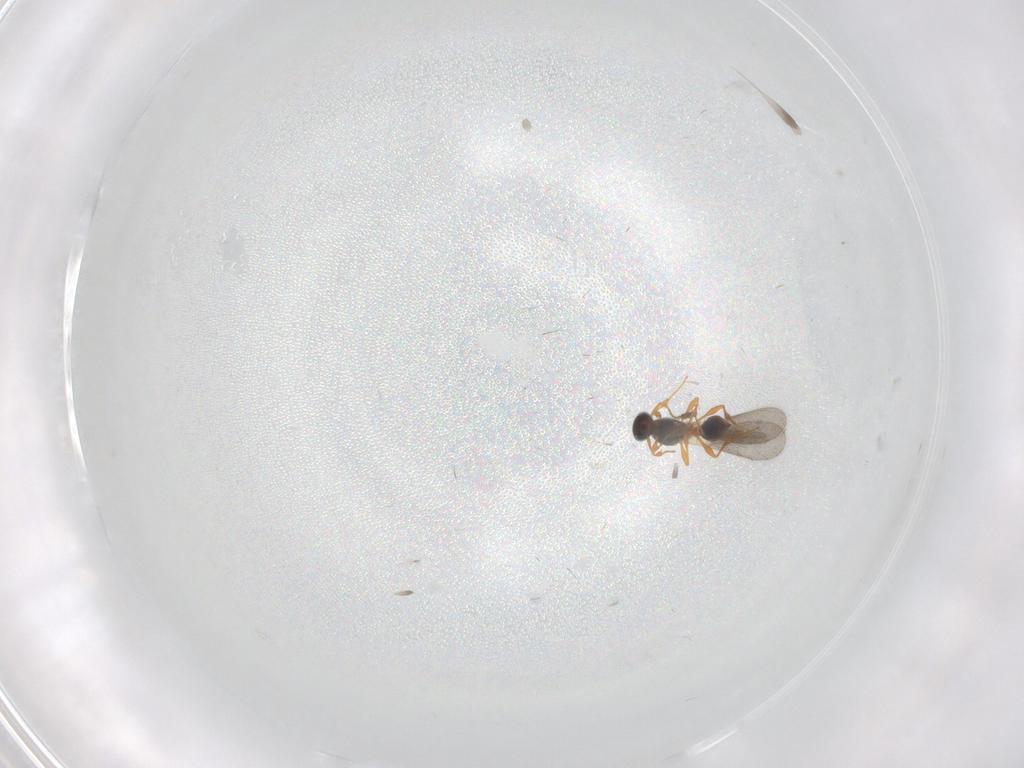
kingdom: Animalia
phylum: Arthropoda
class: Insecta
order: Hymenoptera
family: Platygastridae
